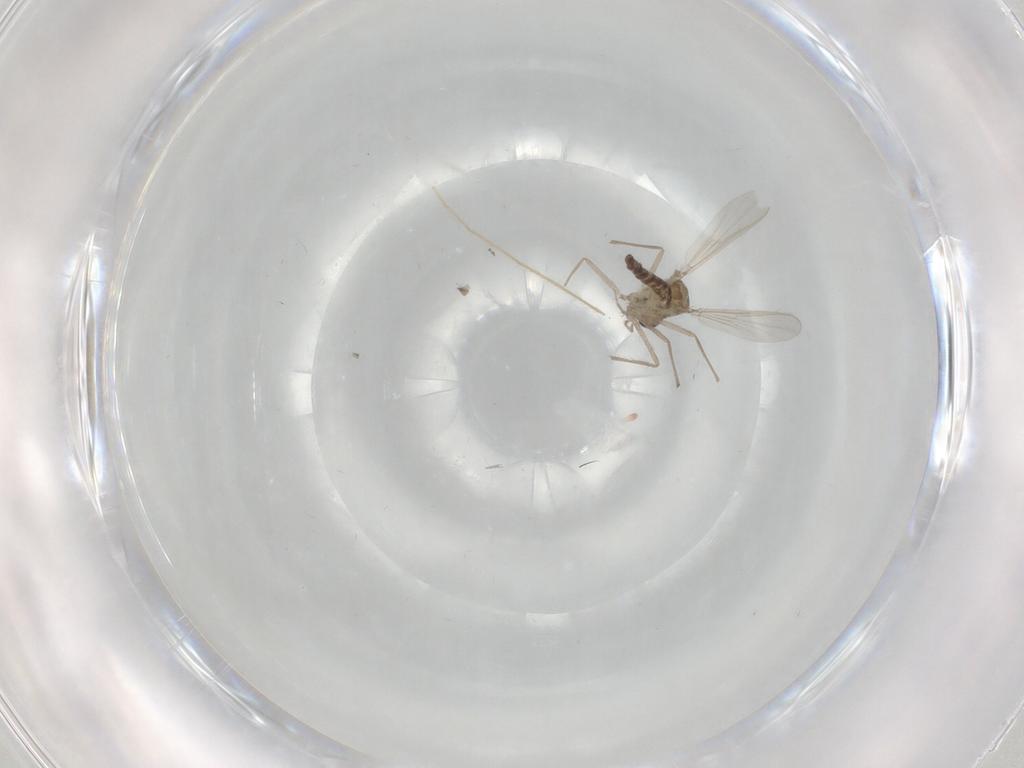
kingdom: Animalia
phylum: Arthropoda
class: Insecta
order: Diptera
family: Chironomidae
